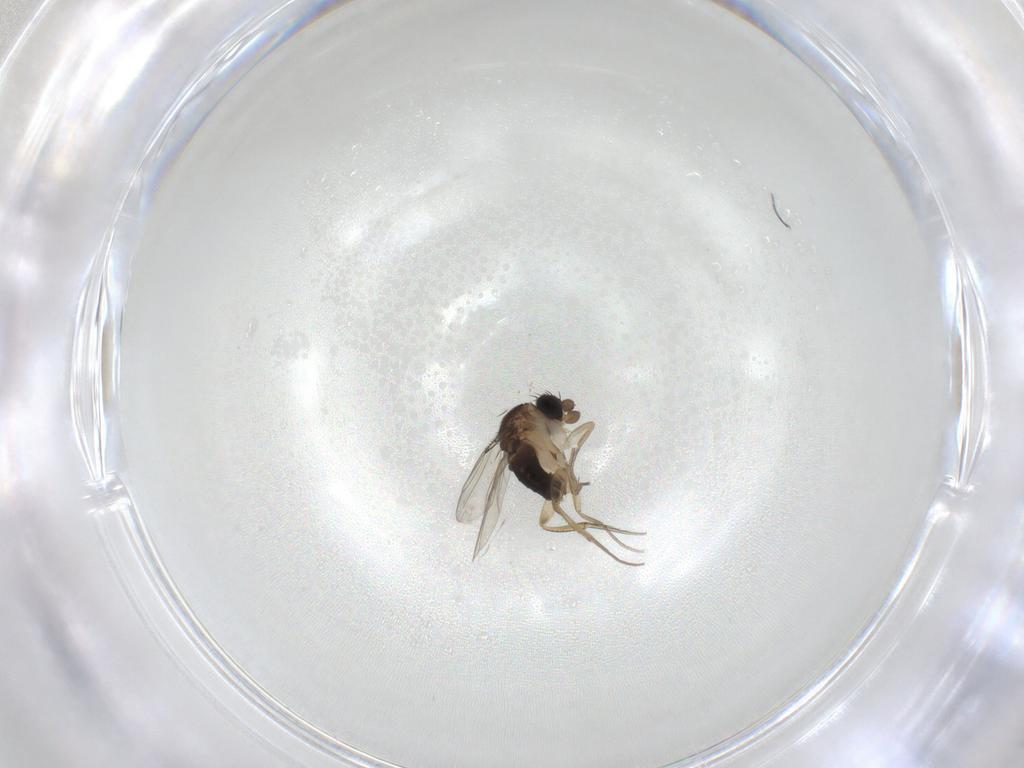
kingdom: Animalia
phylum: Arthropoda
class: Insecta
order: Diptera
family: Phoridae
